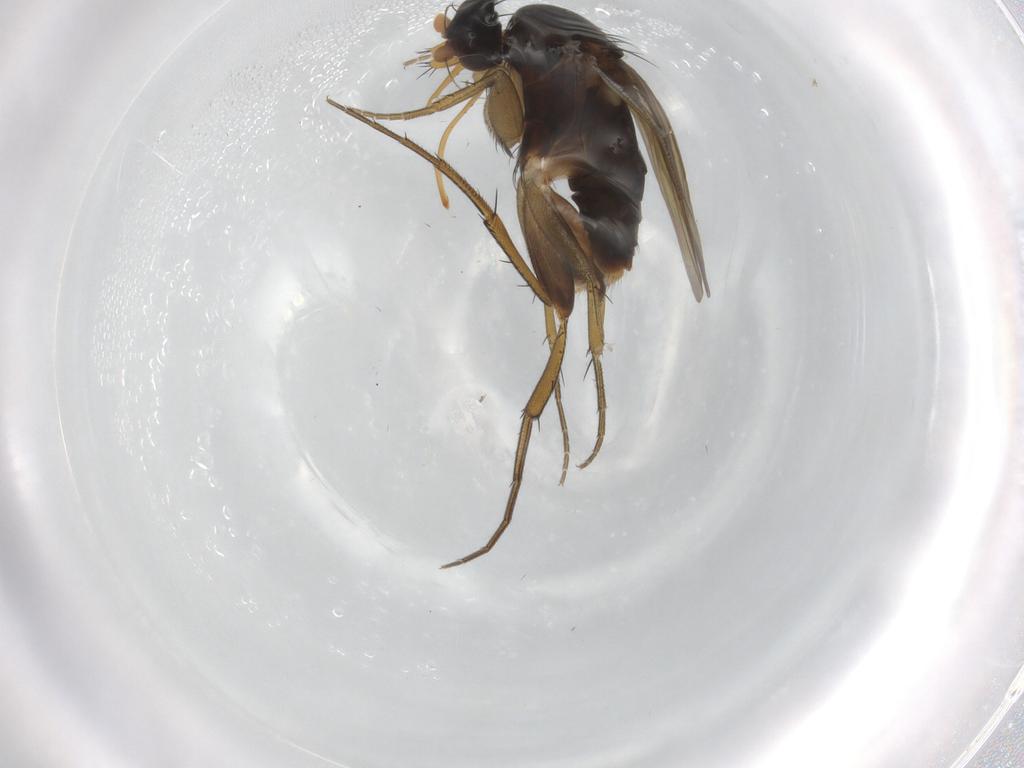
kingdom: Animalia
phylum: Arthropoda
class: Insecta
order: Diptera
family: Phoridae
